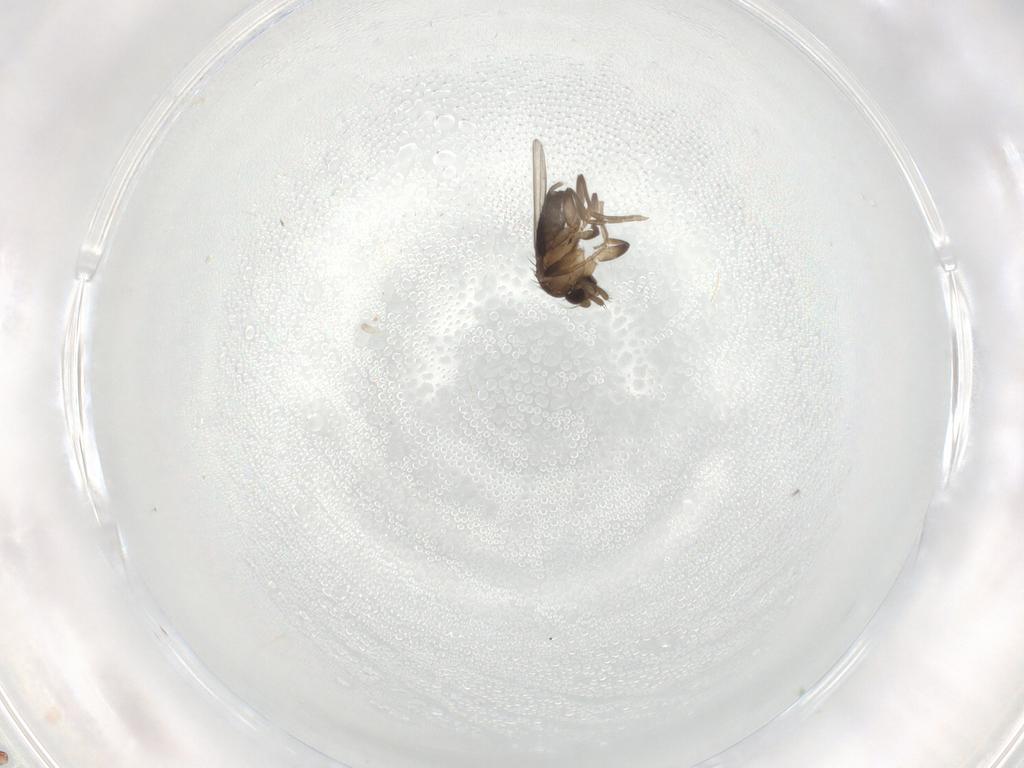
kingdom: Animalia
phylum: Arthropoda
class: Insecta
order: Diptera
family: Phoridae
